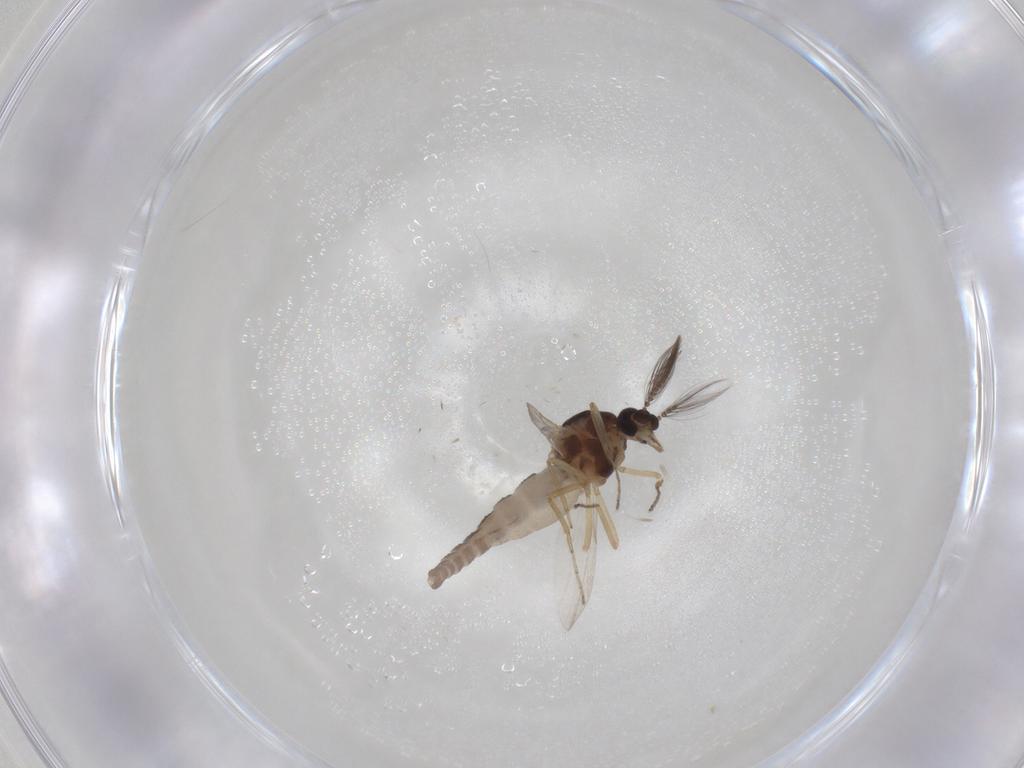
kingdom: Animalia
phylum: Arthropoda
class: Insecta
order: Diptera
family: Ceratopogonidae
